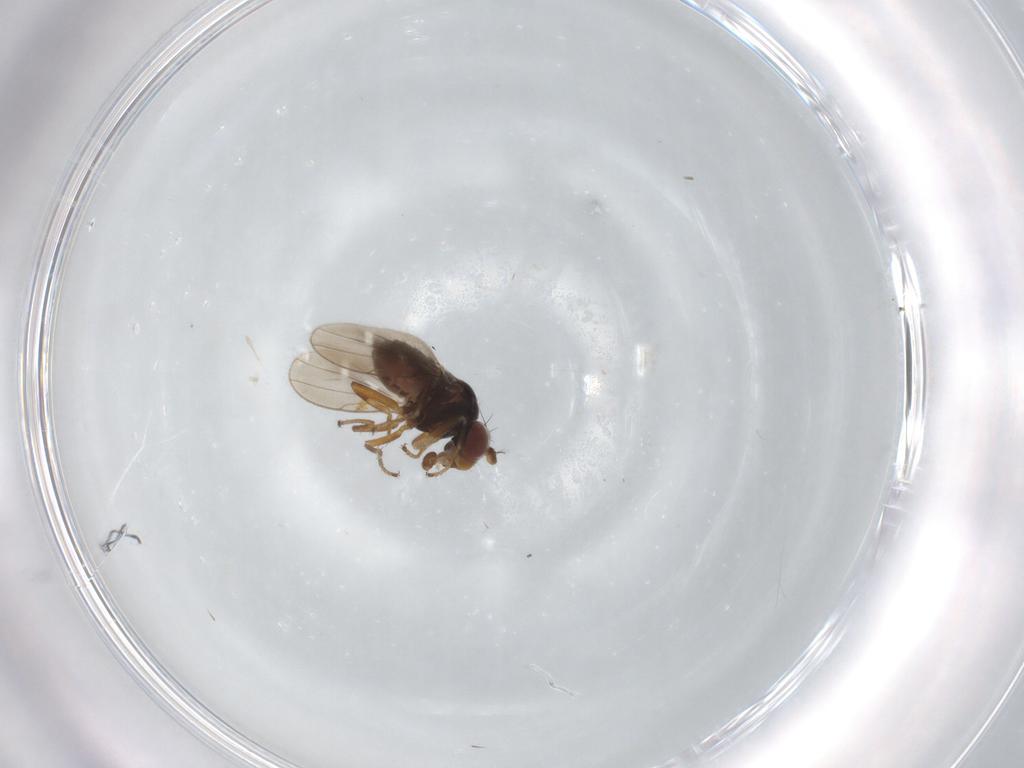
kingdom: Animalia
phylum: Arthropoda
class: Insecta
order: Diptera
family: Ephydridae
